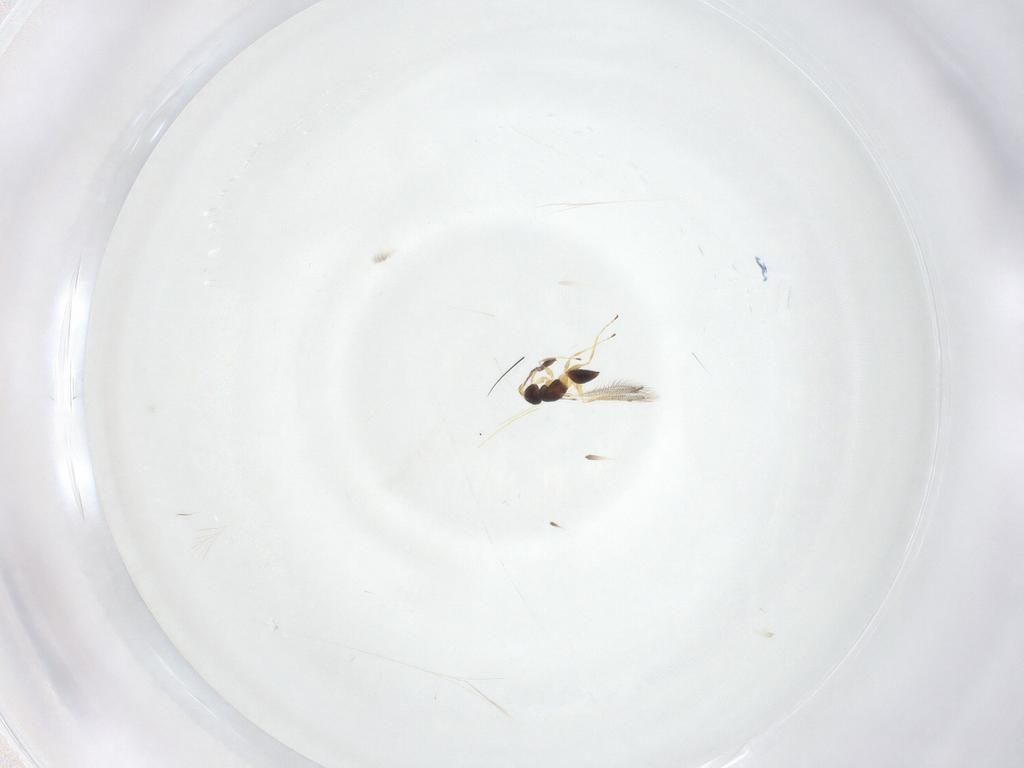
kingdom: Animalia
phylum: Arthropoda
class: Insecta
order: Hymenoptera
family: Mymaridae
